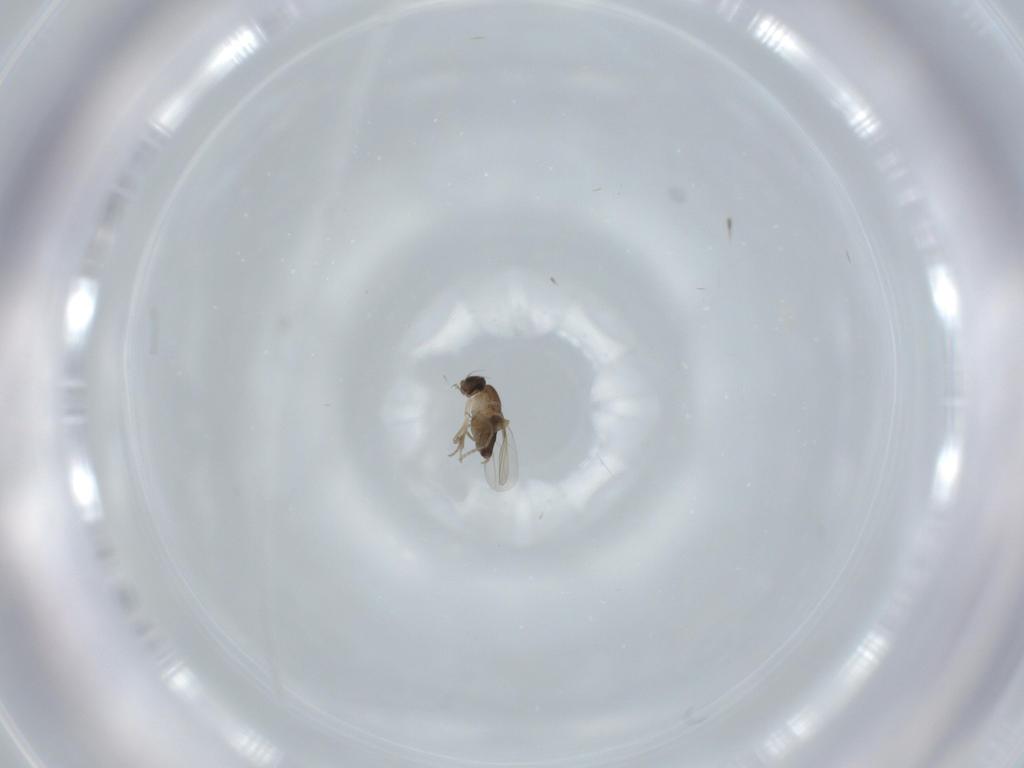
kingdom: Animalia
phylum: Arthropoda
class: Insecta
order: Diptera
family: Phoridae
